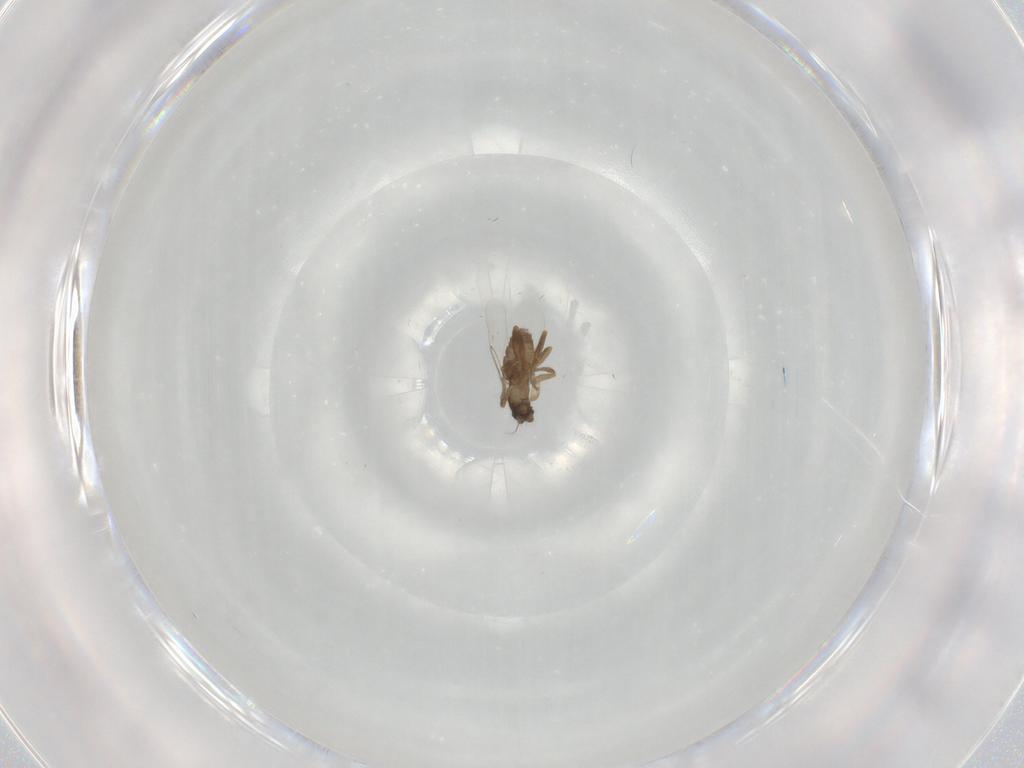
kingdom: Animalia
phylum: Arthropoda
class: Insecta
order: Diptera
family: Phoridae
